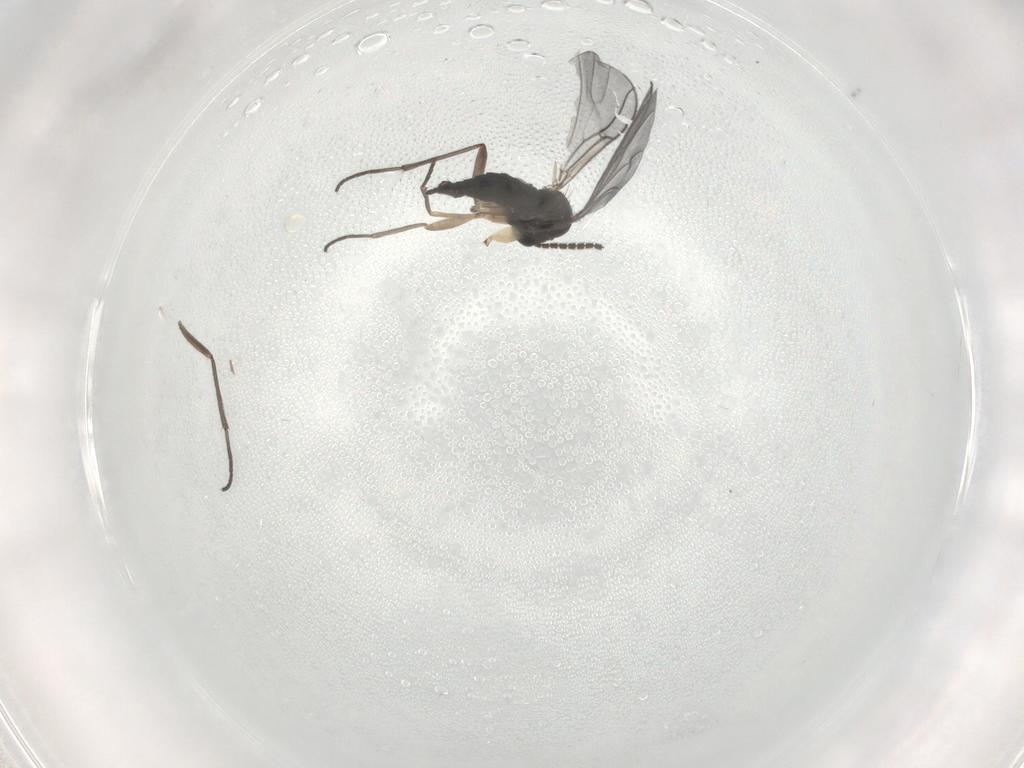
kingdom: Animalia
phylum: Arthropoda
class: Insecta
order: Diptera
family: Sciaridae
